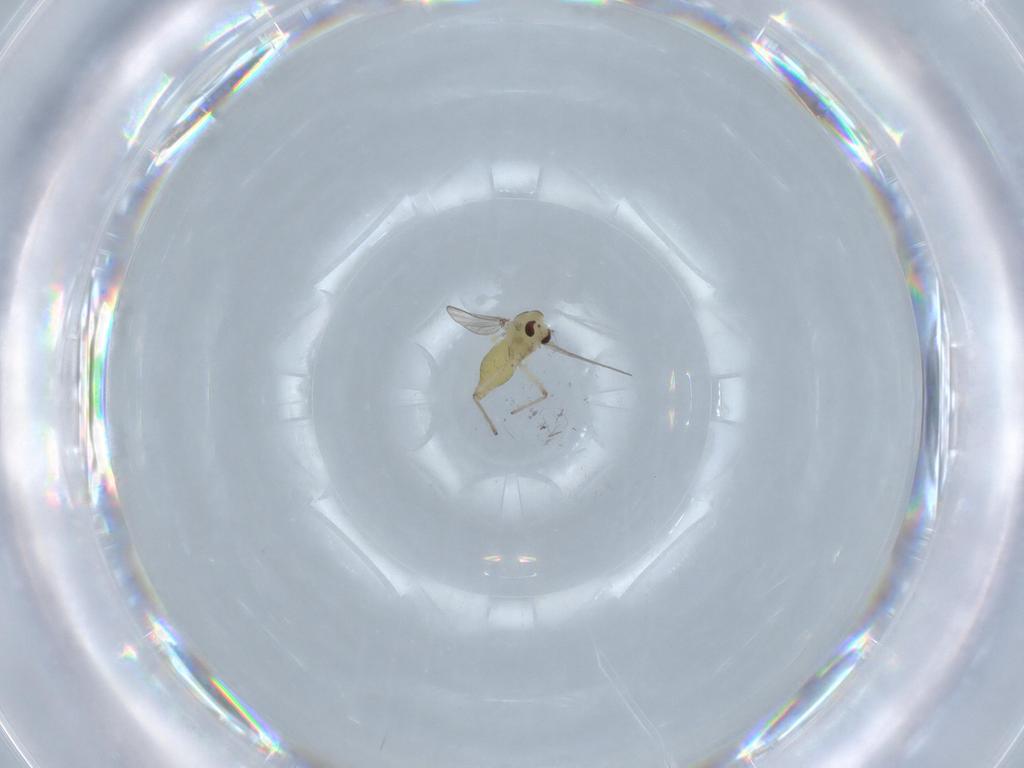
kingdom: Animalia
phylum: Arthropoda
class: Insecta
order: Diptera
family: Chironomidae
